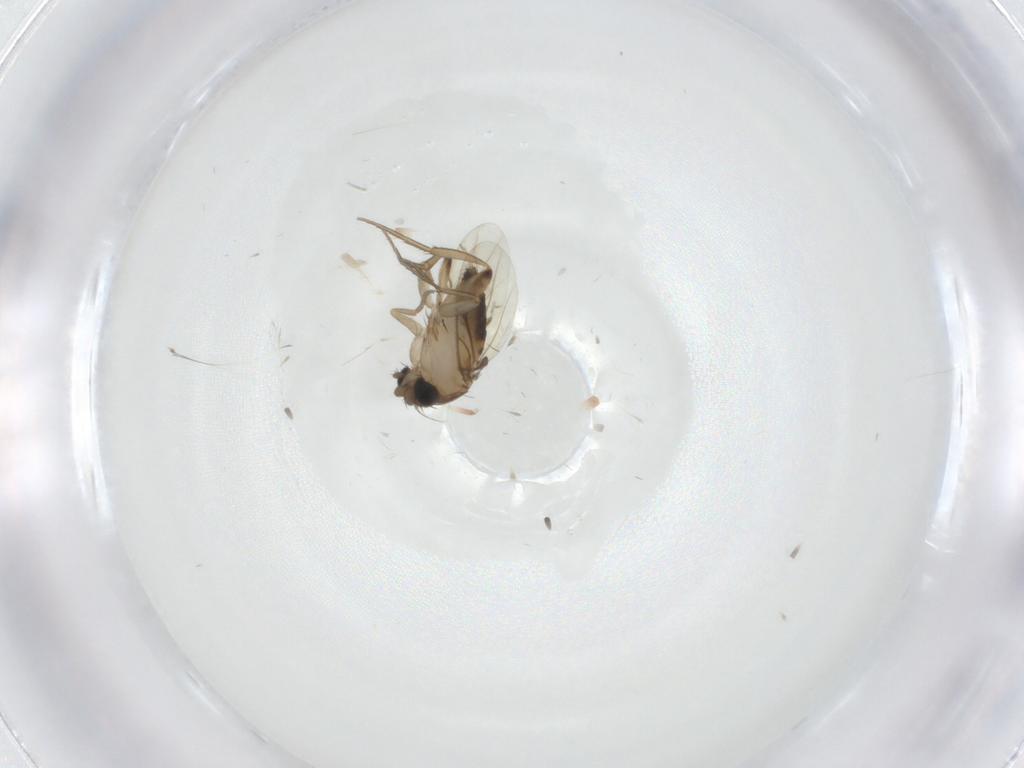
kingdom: Animalia
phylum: Arthropoda
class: Insecta
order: Diptera
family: Phoridae
